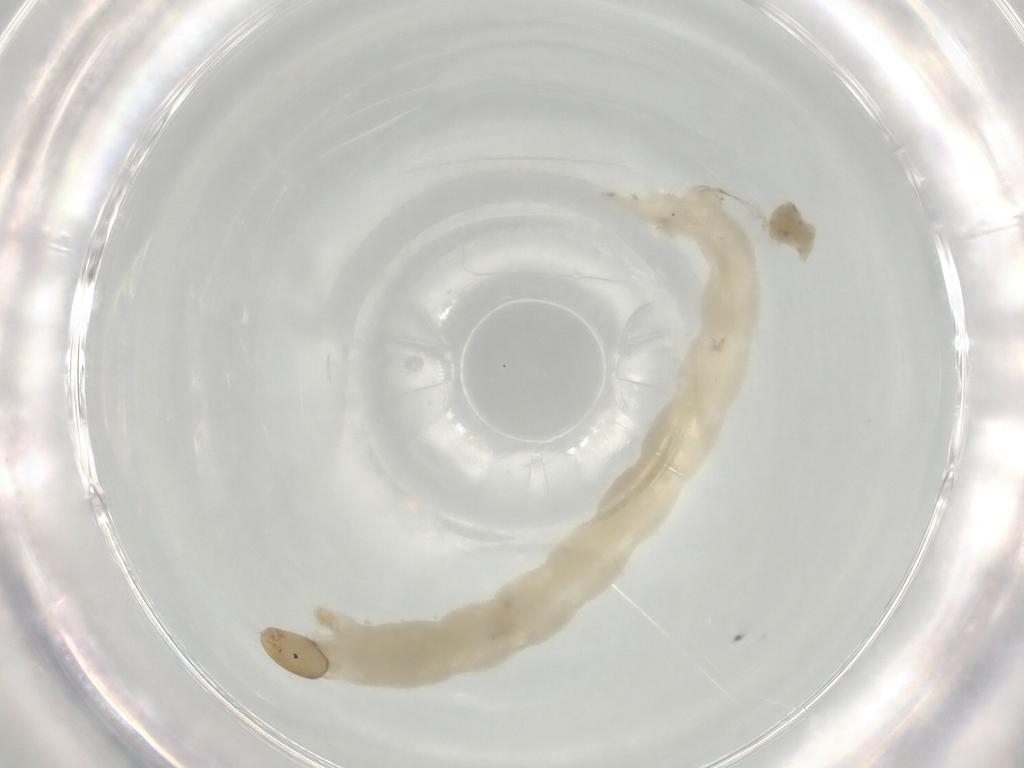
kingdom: Animalia
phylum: Arthropoda
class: Insecta
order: Diptera
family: Chironomidae
